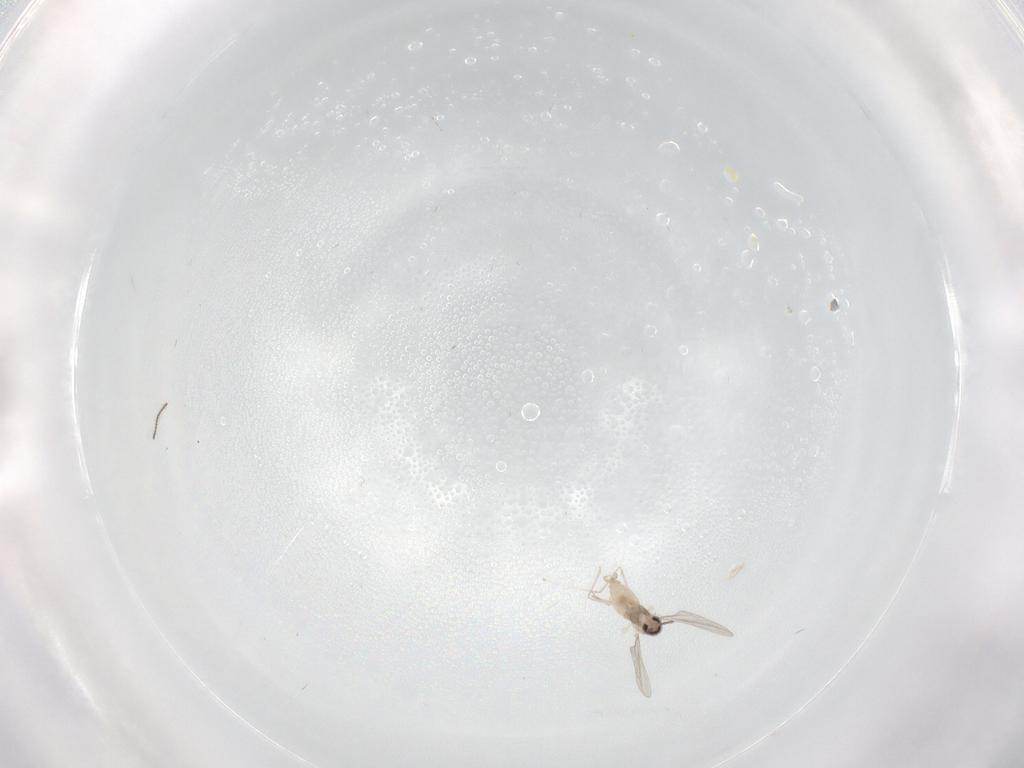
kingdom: Animalia
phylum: Arthropoda
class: Insecta
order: Diptera
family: Ceratopogonidae
